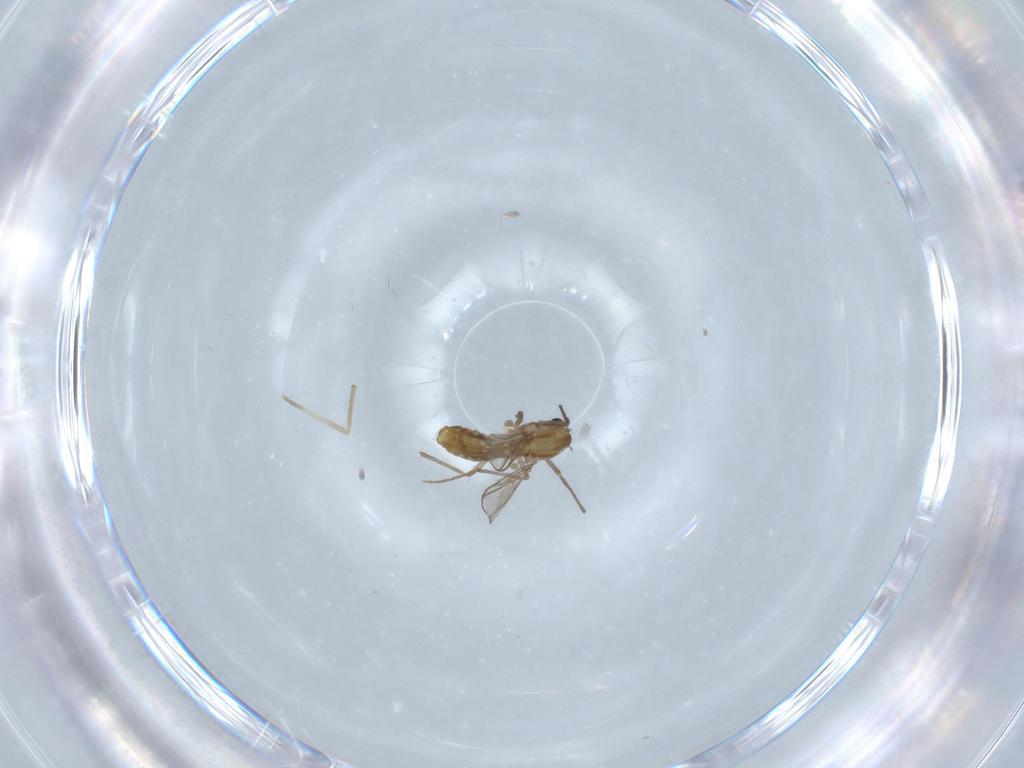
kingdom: Animalia
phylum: Arthropoda
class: Insecta
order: Diptera
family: Chironomidae
